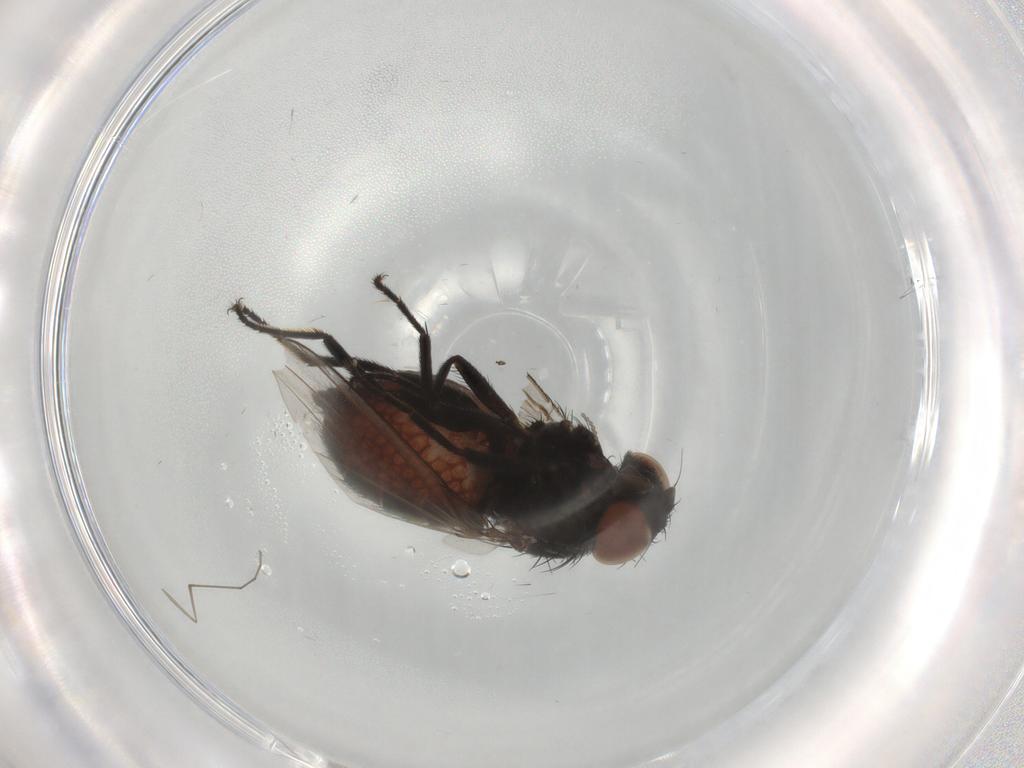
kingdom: Animalia
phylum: Arthropoda
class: Insecta
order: Diptera
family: Milichiidae
